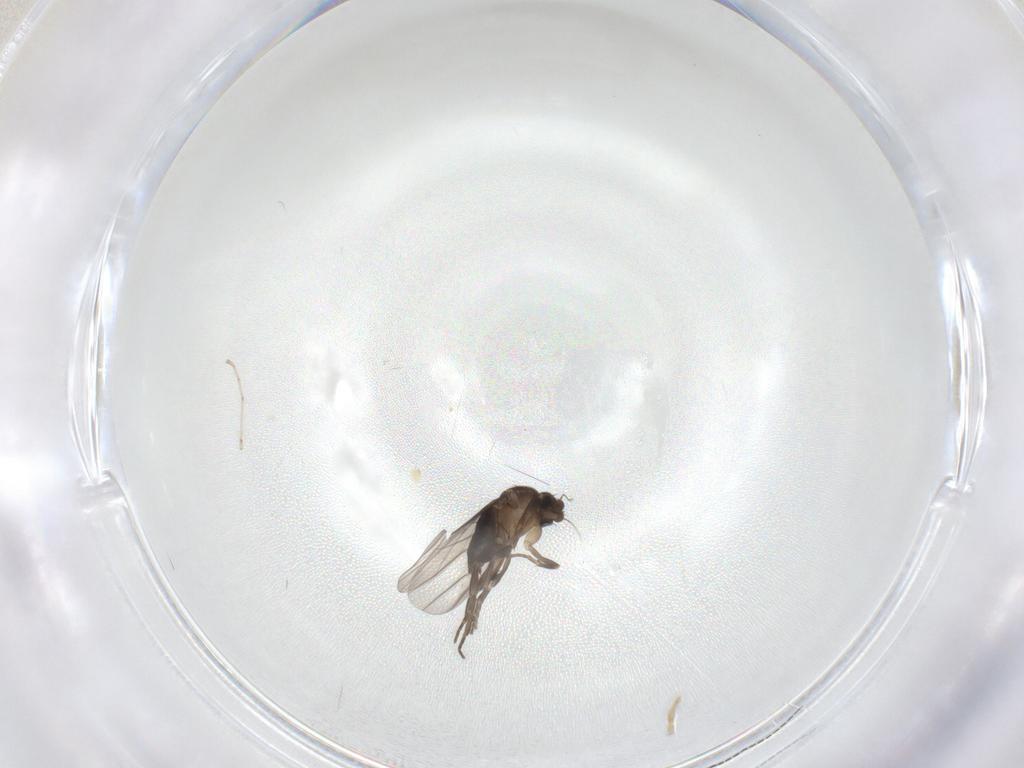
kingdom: Animalia
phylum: Arthropoda
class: Insecta
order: Diptera
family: Cecidomyiidae
